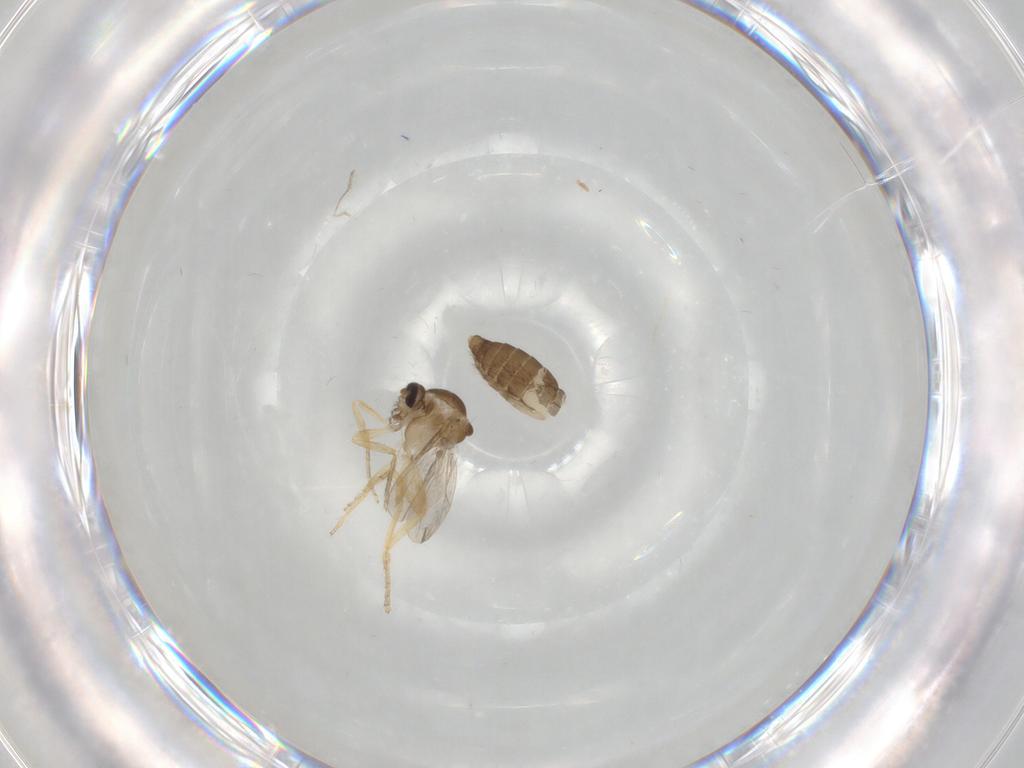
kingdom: Animalia
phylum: Arthropoda
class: Insecta
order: Diptera
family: Ceratopogonidae
